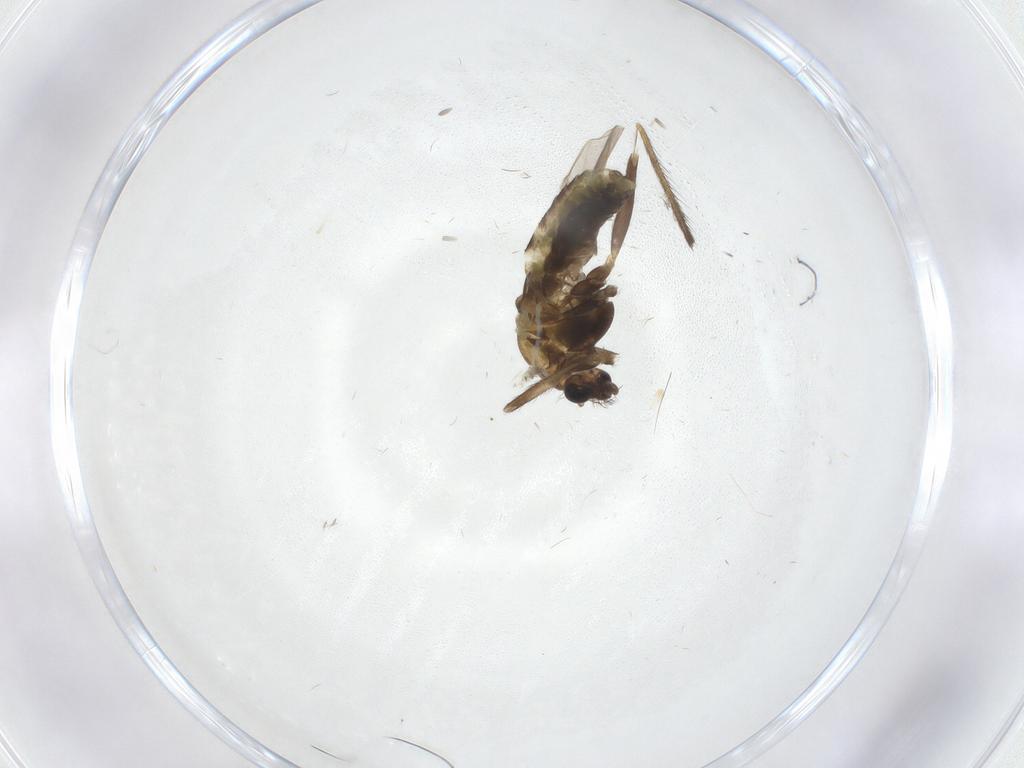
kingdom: Animalia
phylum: Arthropoda
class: Insecta
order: Diptera
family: Chironomidae
